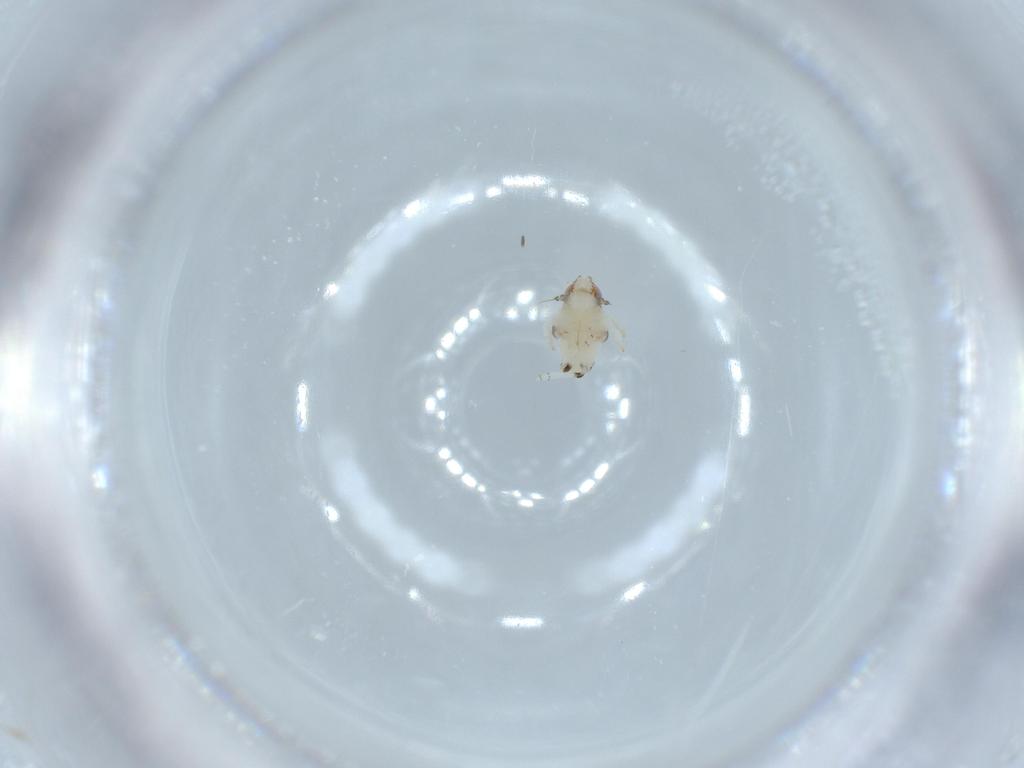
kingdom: Animalia
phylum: Arthropoda
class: Insecta
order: Hemiptera
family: Nogodinidae
